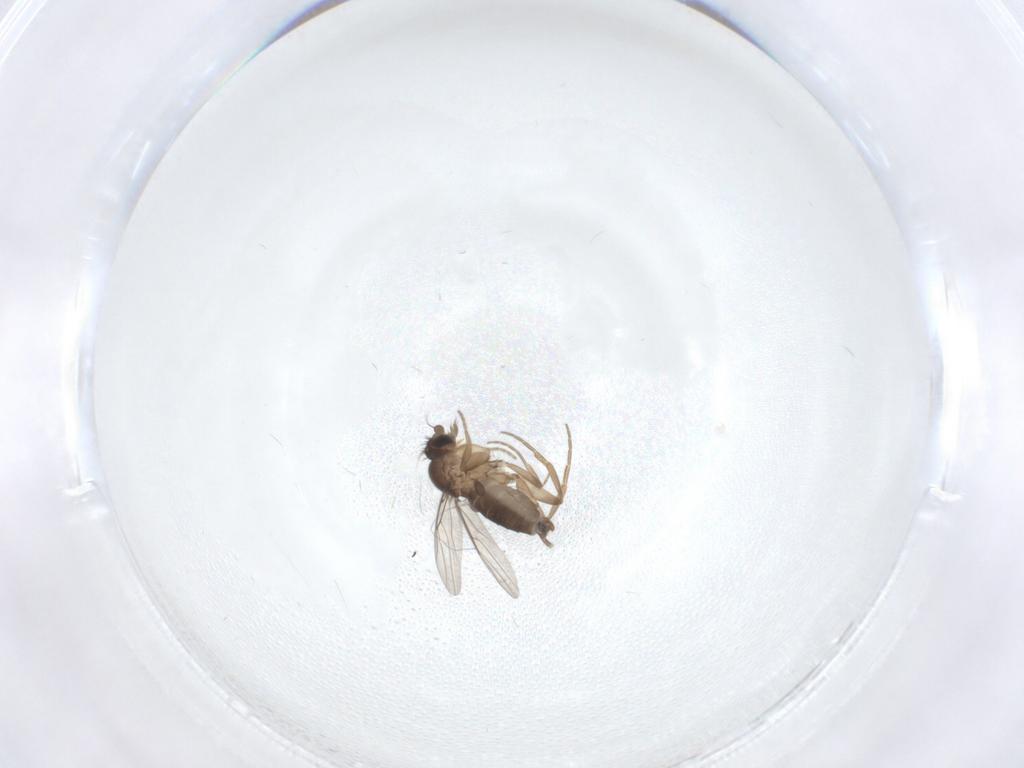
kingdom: Animalia
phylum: Arthropoda
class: Insecta
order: Diptera
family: Phoridae
